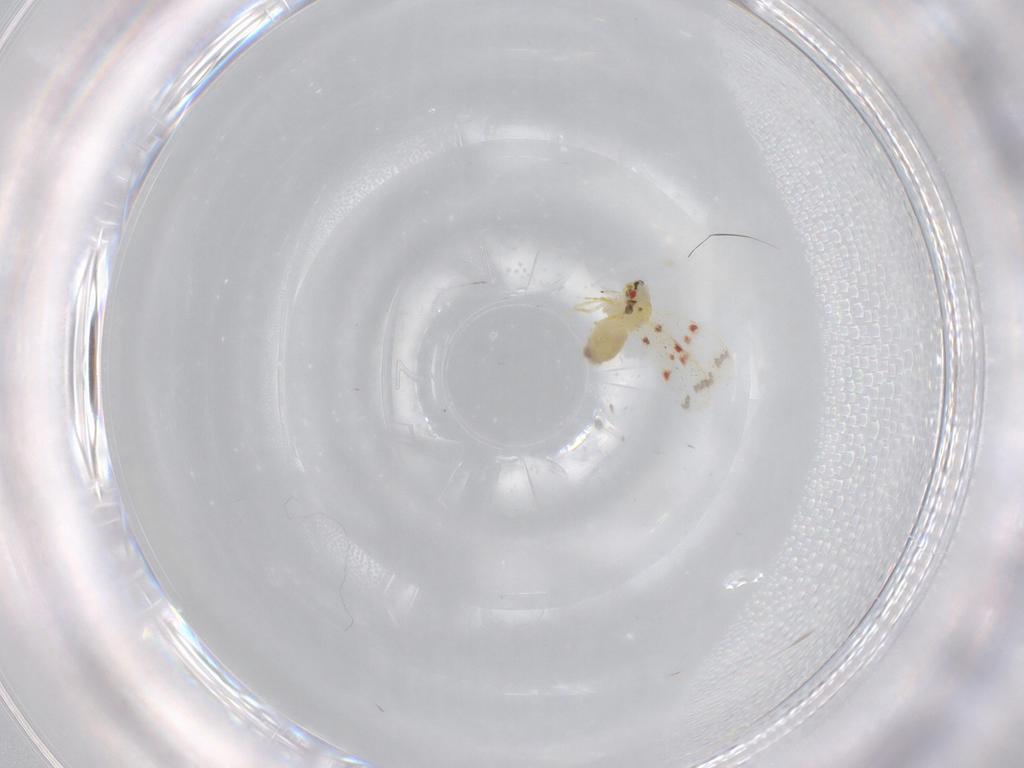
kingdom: Animalia
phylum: Arthropoda
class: Insecta
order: Hemiptera
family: Aleyrodidae
